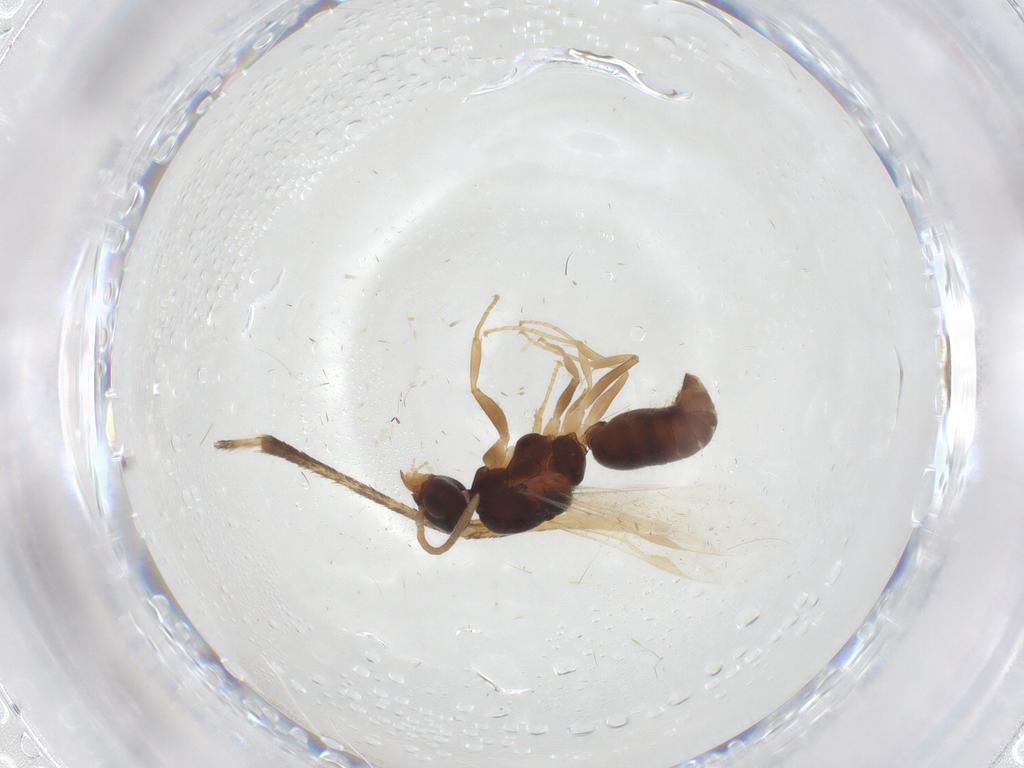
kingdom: Animalia
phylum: Arthropoda
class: Insecta
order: Hymenoptera
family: Formicidae
